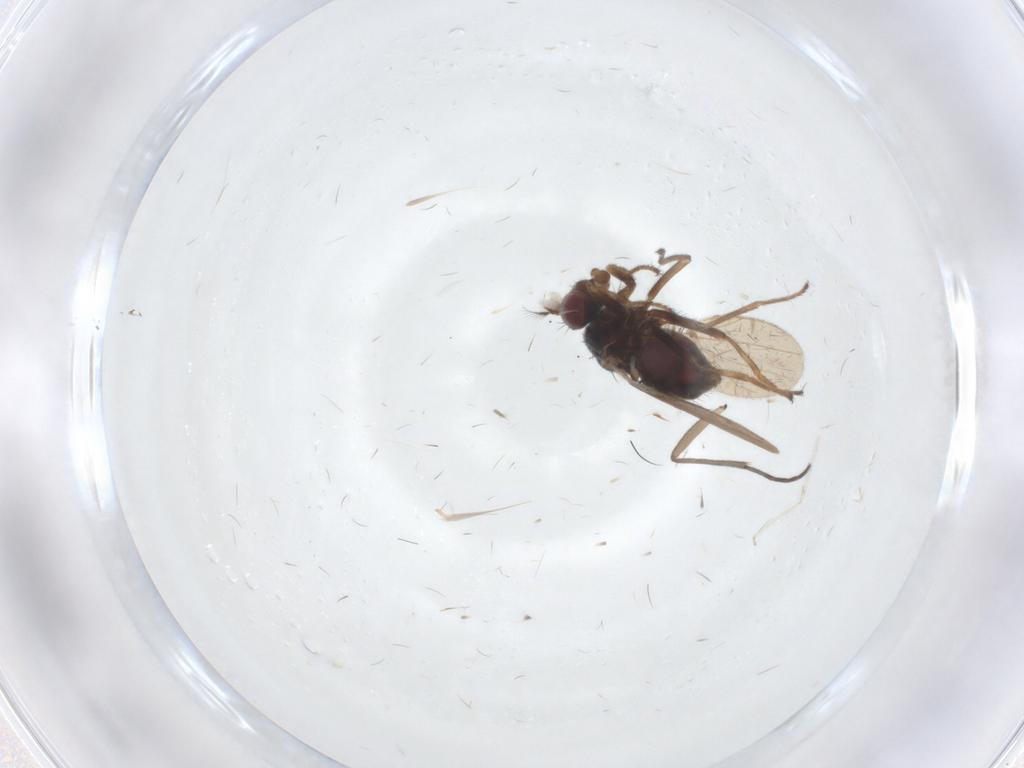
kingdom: Animalia
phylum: Arthropoda
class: Insecta
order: Diptera
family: Ephydridae
